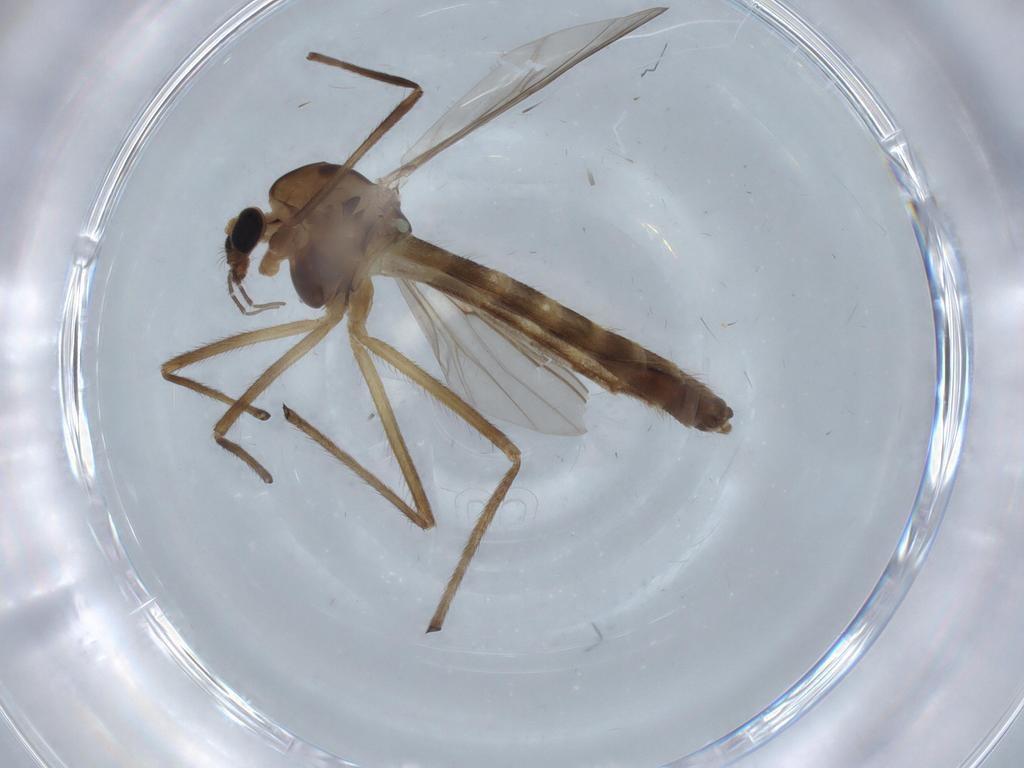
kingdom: Animalia
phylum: Arthropoda
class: Insecta
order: Diptera
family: Chironomidae
